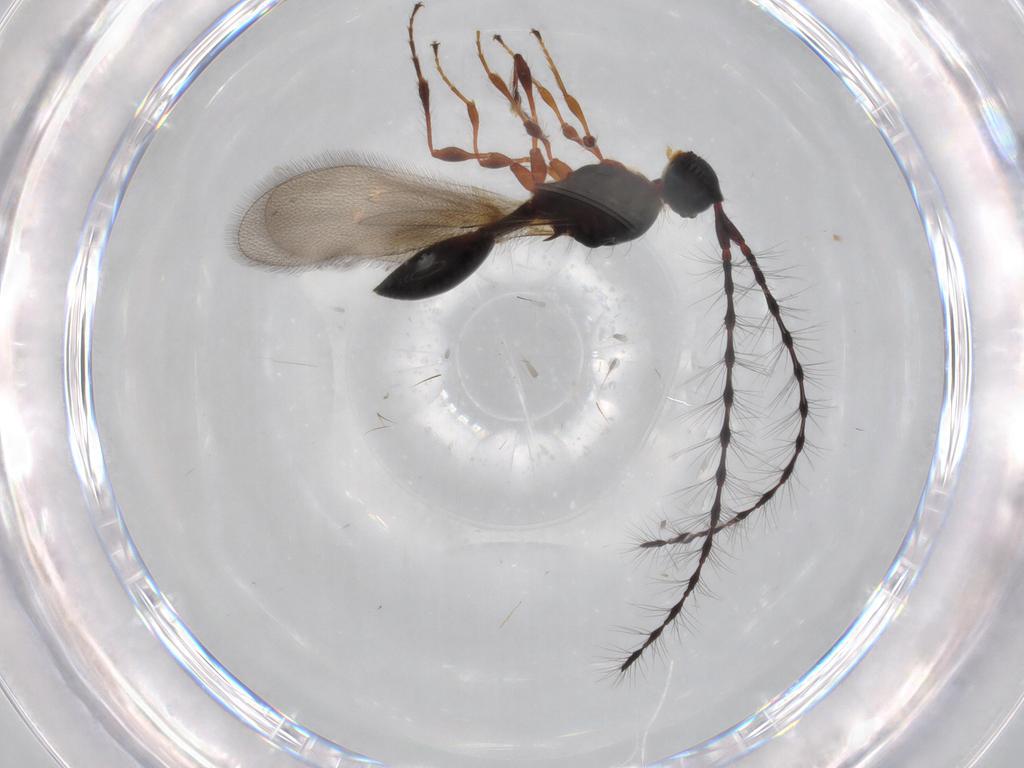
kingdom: Animalia
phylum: Arthropoda
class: Insecta
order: Hymenoptera
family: Diapriidae
